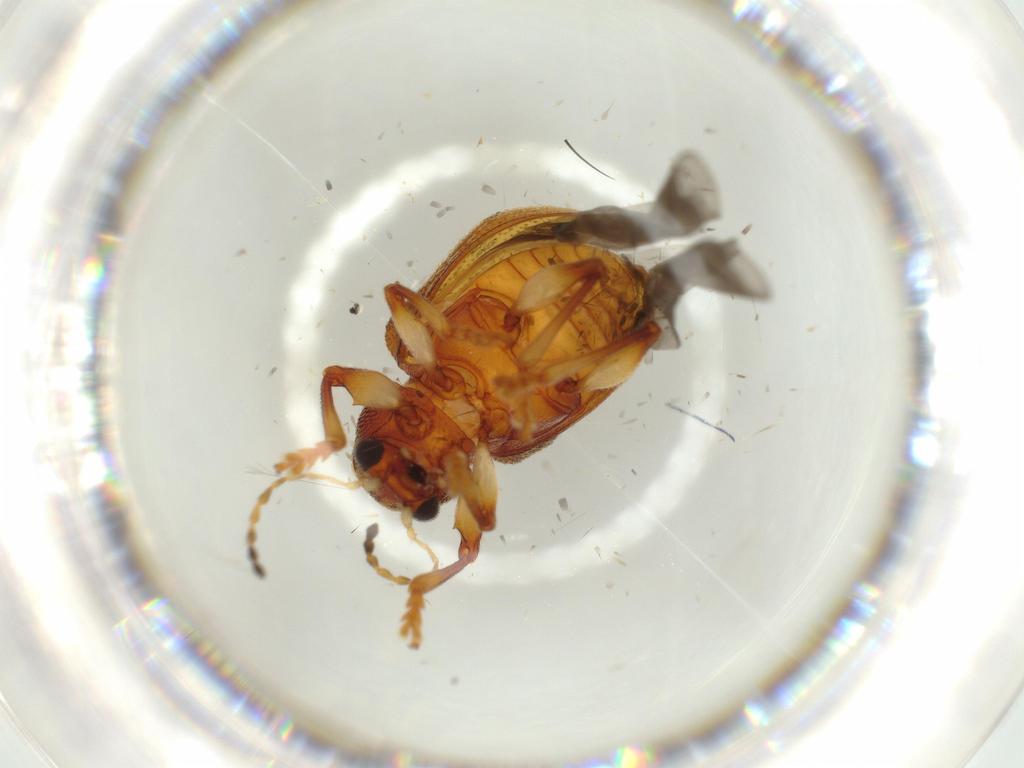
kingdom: Animalia
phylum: Arthropoda
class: Insecta
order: Coleoptera
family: Chrysomelidae
